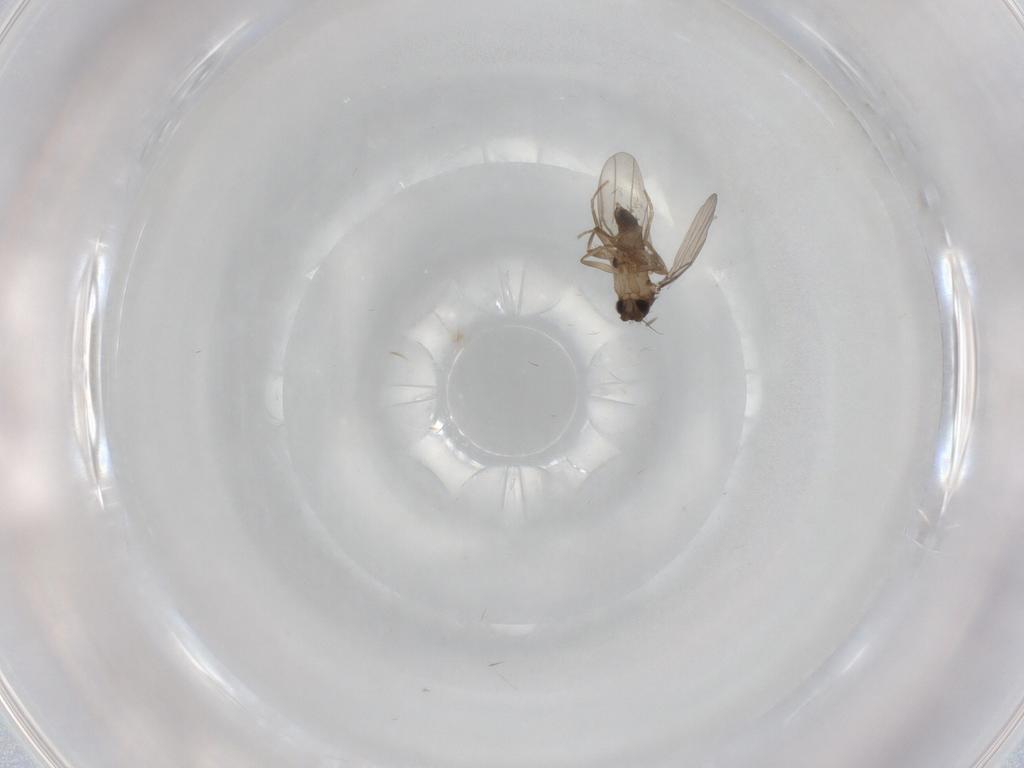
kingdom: Animalia
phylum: Arthropoda
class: Insecta
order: Diptera
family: Phoridae
